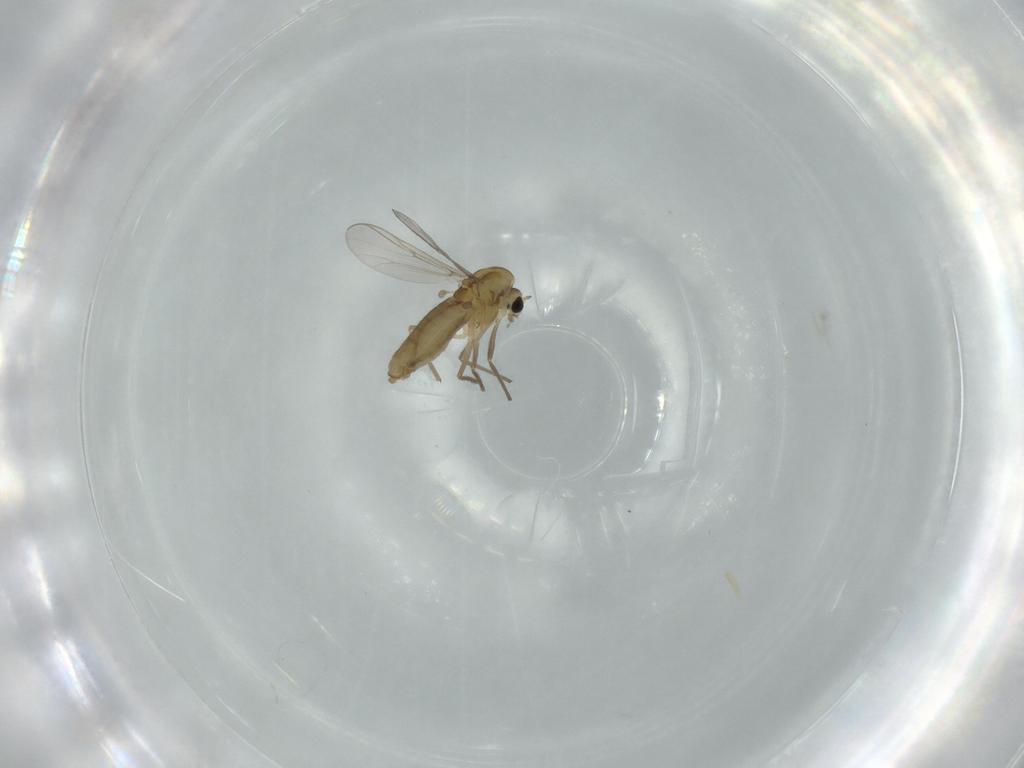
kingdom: Animalia
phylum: Arthropoda
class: Insecta
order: Diptera
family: Chironomidae
